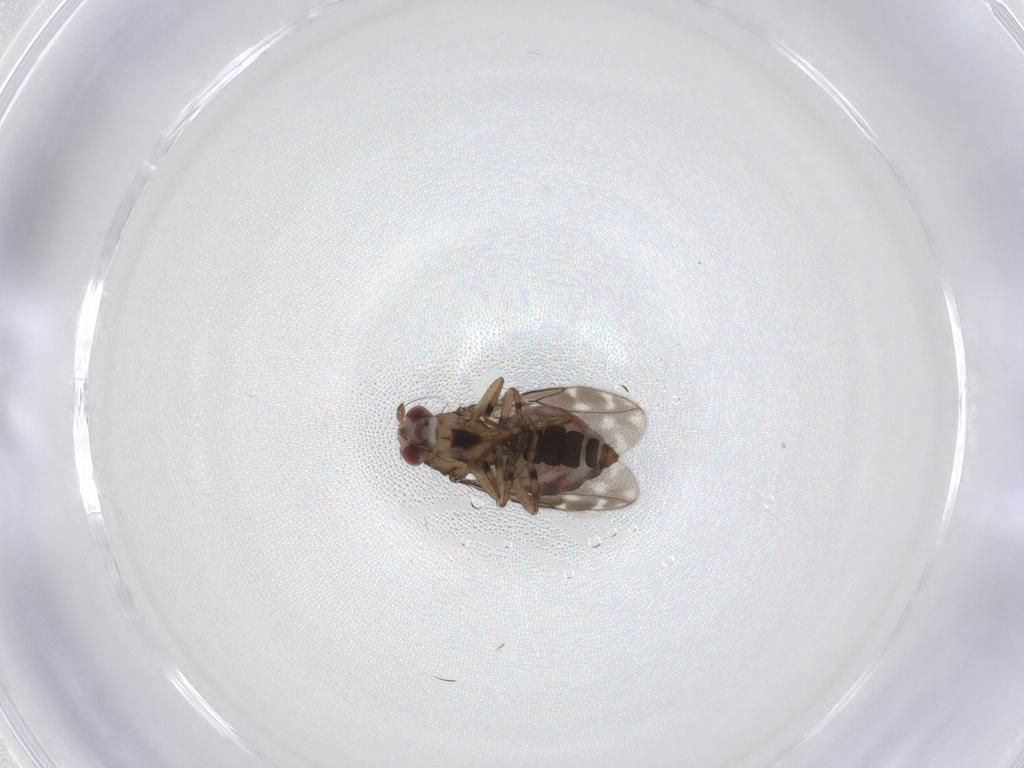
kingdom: Animalia
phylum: Arthropoda
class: Insecta
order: Diptera
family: Sphaeroceridae
